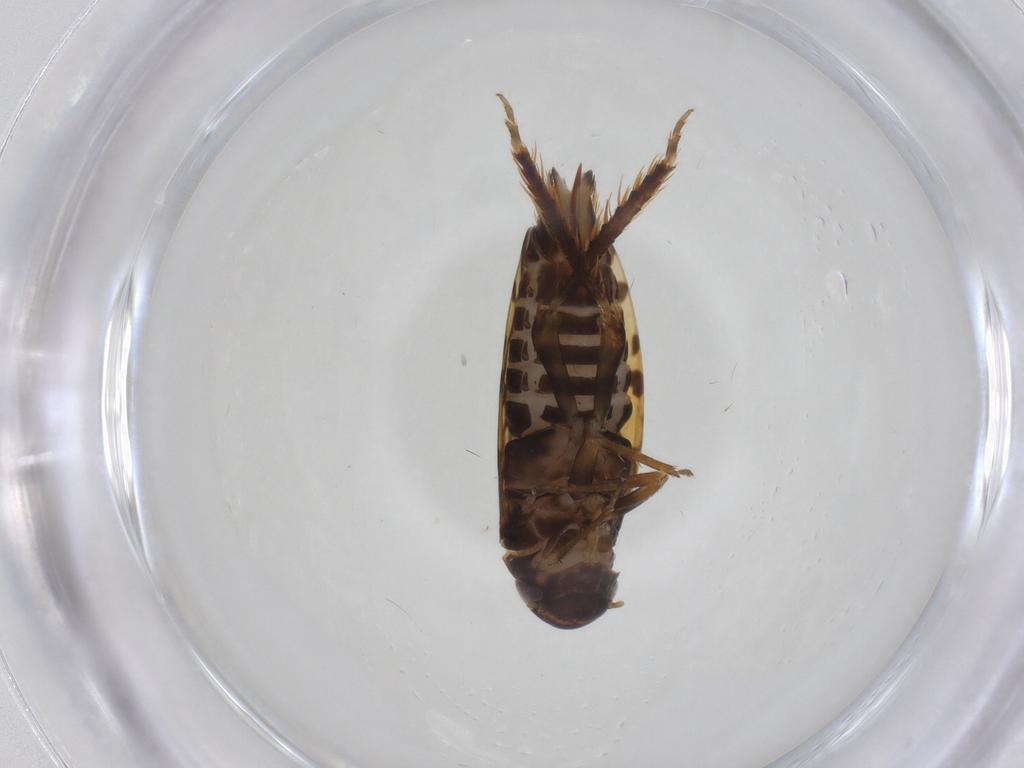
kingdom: Animalia
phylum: Arthropoda
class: Insecta
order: Hemiptera
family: Cicadellidae
